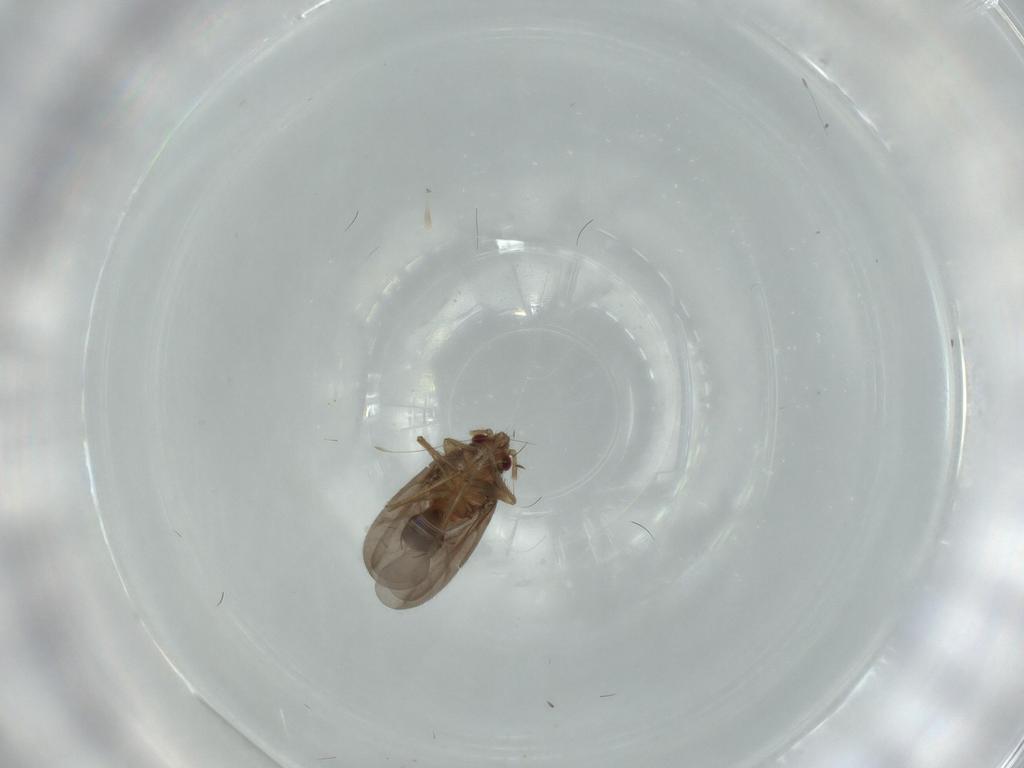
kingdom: Animalia
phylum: Arthropoda
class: Insecta
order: Hemiptera
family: Ceratocombidae
